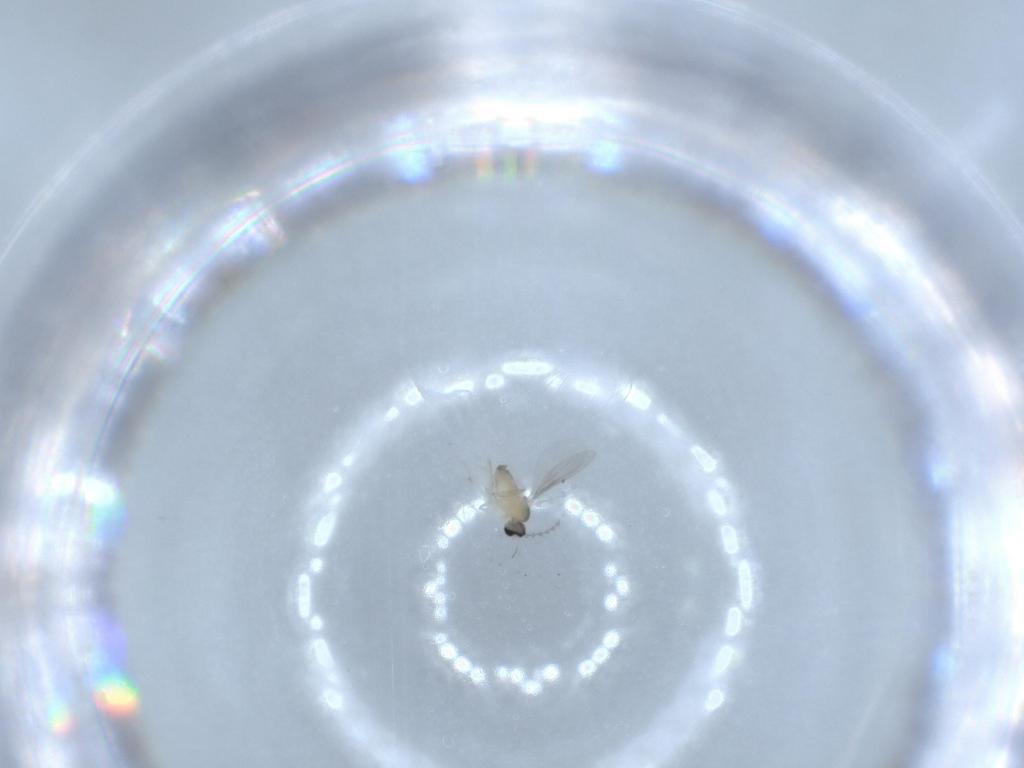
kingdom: Animalia
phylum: Arthropoda
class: Insecta
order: Diptera
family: Cecidomyiidae
